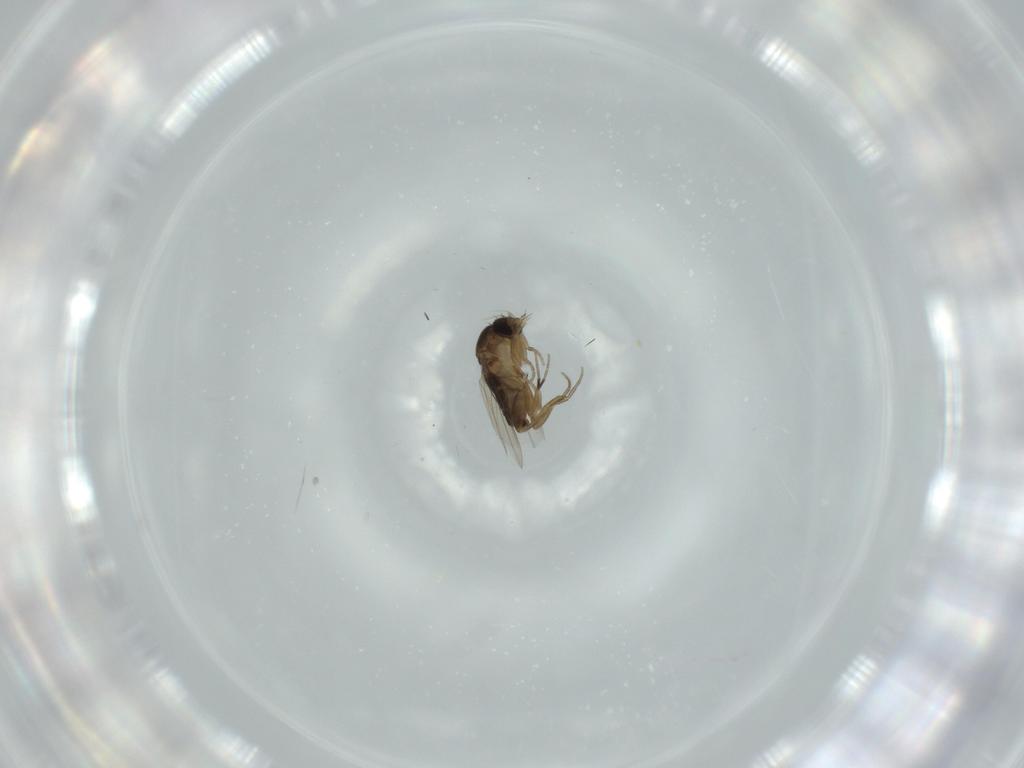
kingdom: Animalia
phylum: Arthropoda
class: Insecta
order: Diptera
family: Phoridae
